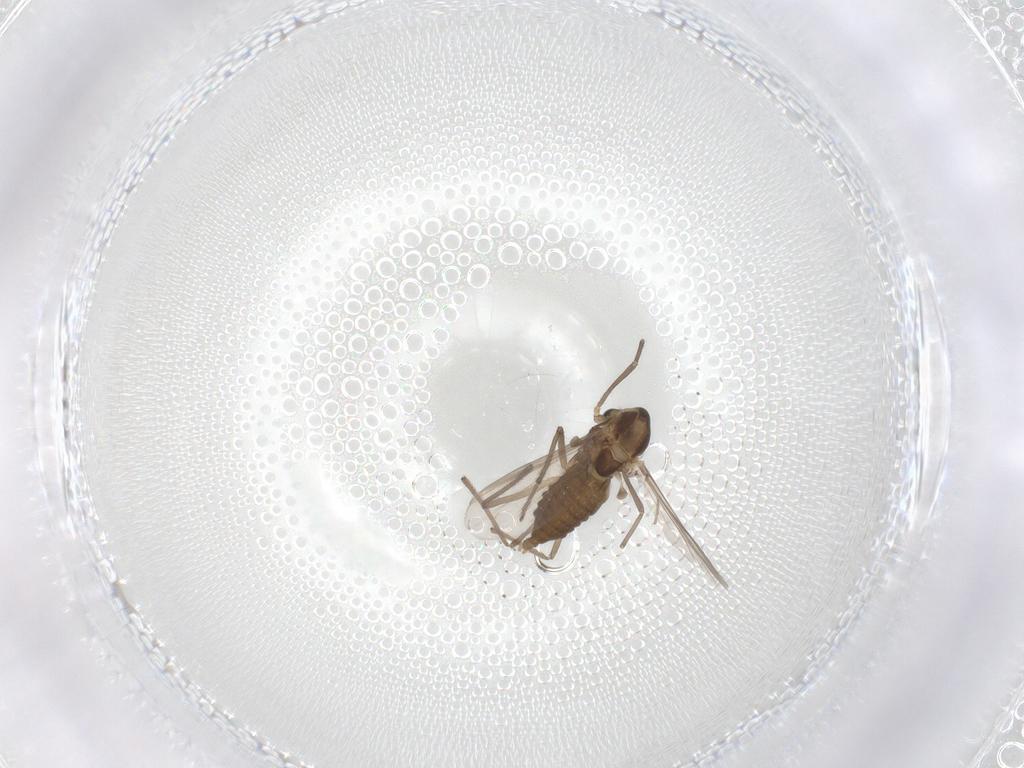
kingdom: Animalia
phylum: Arthropoda
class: Insecta
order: Diptera
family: Chironomidae
